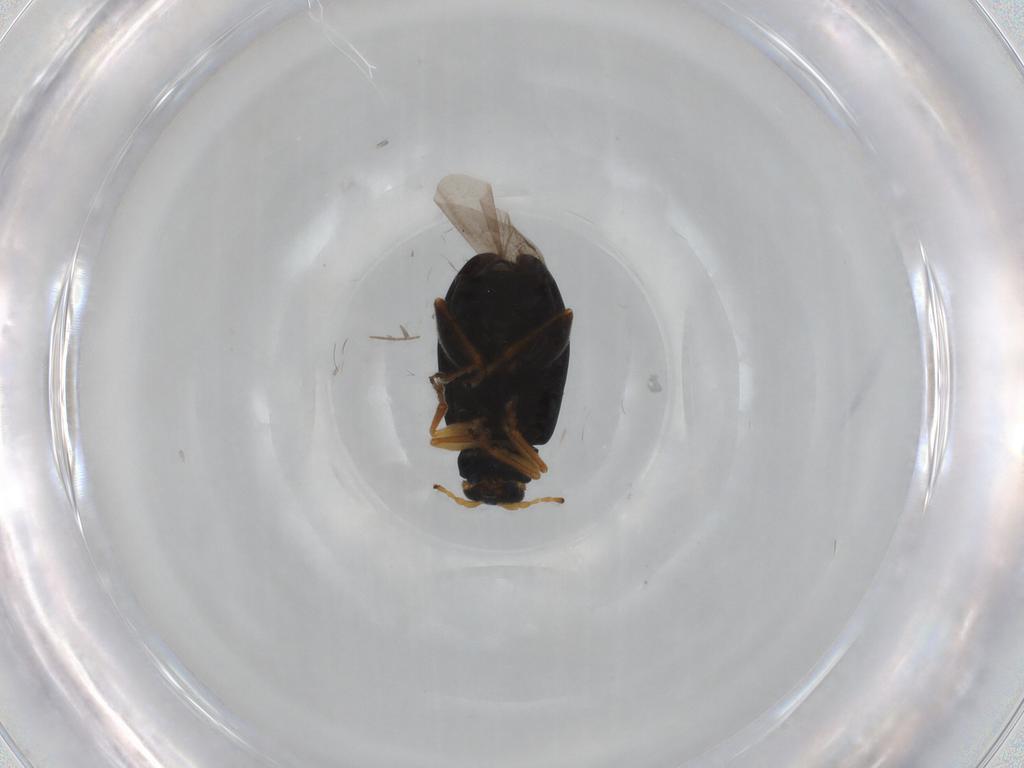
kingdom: Animalia
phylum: Arthropoda
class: Insecta
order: Coleoptera
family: Chrysomelidae
